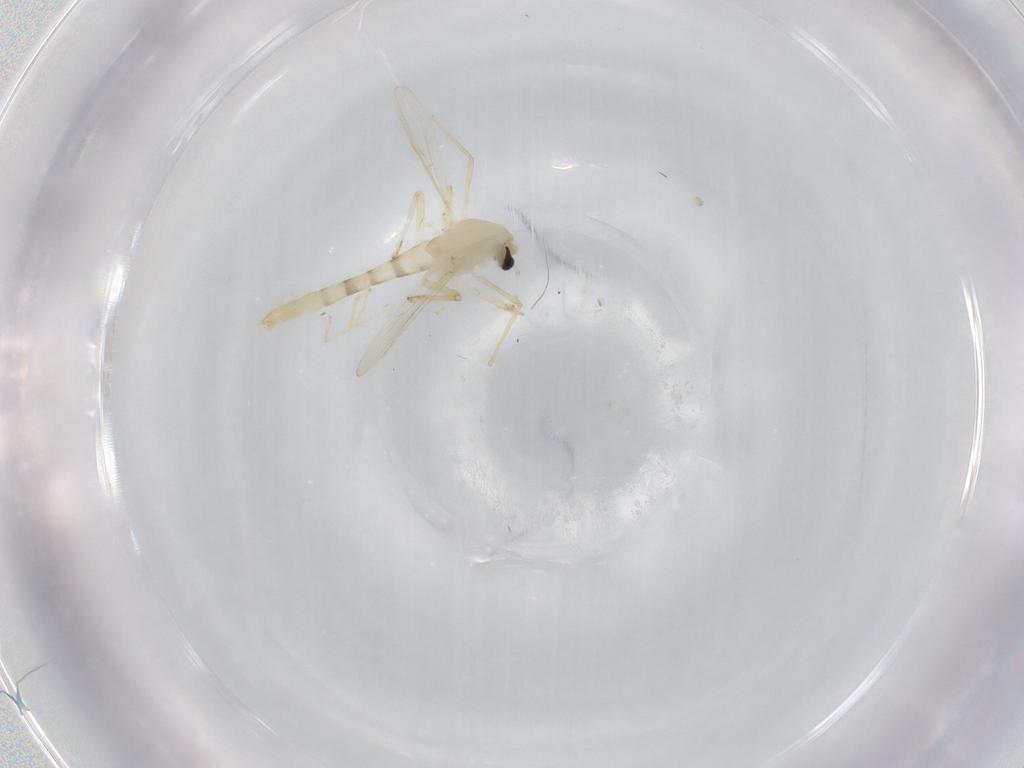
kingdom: Animalia
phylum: Arthropoda
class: Insecta
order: Diptera
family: Chironomidae
